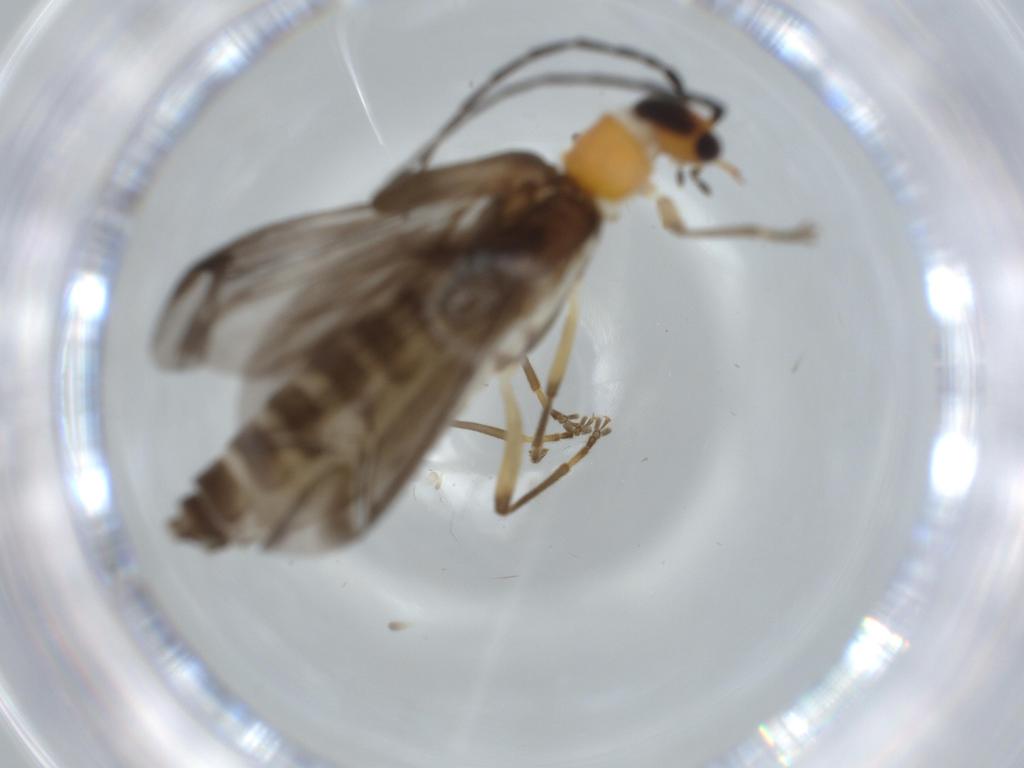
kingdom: Animalia
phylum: Arthropoda
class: Insecta
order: Coleoptera
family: Cantharidae
